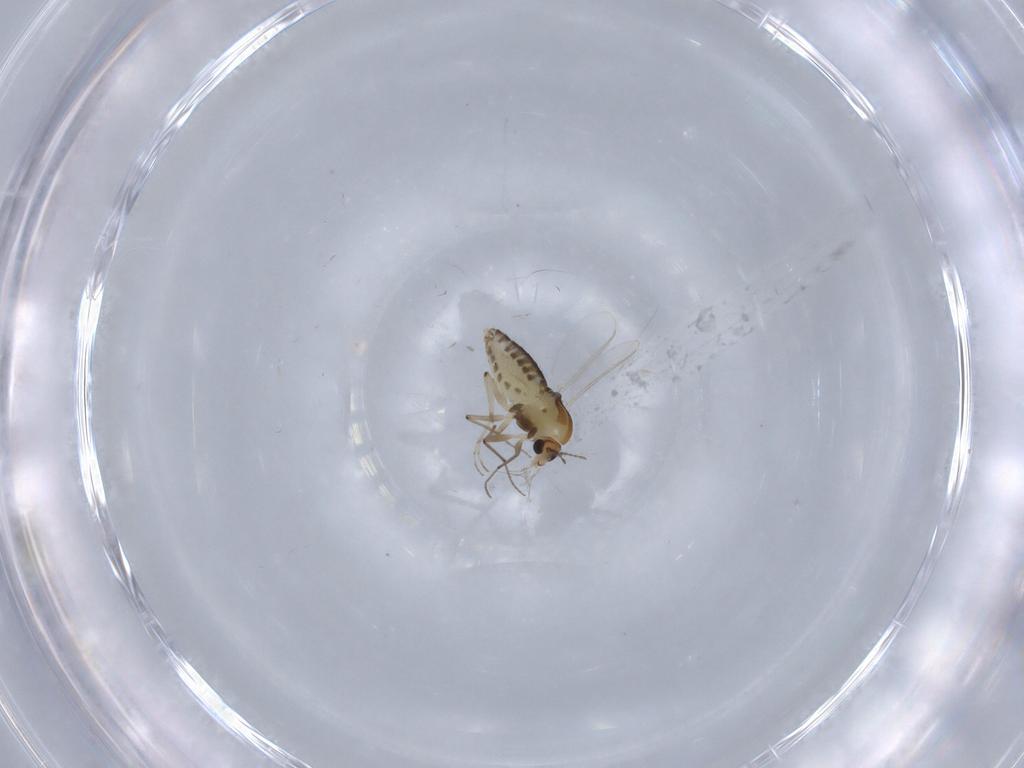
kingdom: Animalia
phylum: Arthropoda
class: Insecta
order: Diptera
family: Chironomidae
